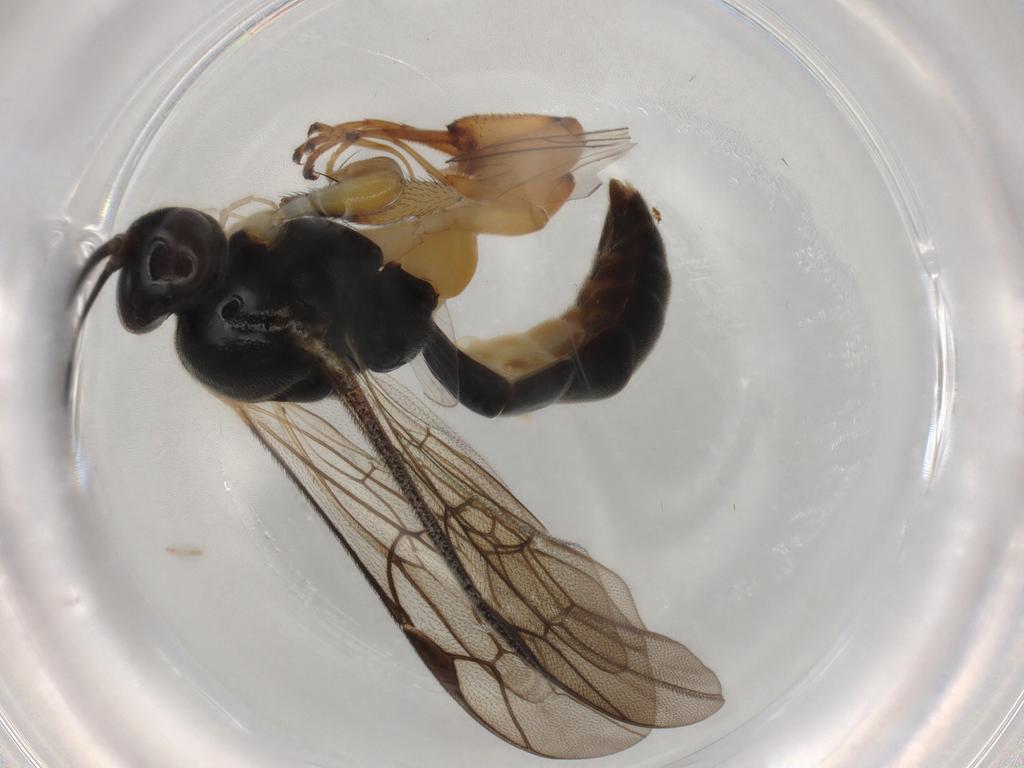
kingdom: Animalia
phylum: Arthropoda
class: Insecta
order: Hymenoptera
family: Ichneumonidae
